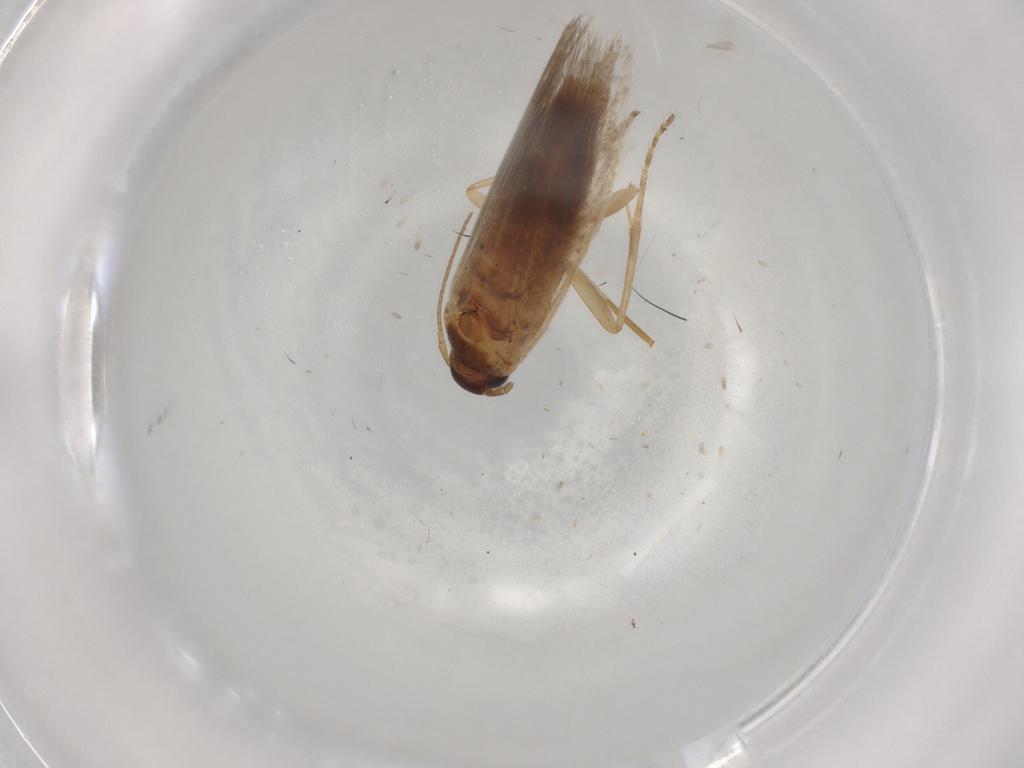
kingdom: Animalia
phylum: Arthropoda
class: Insecta
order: Lepidoptera
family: Gelechiidae
